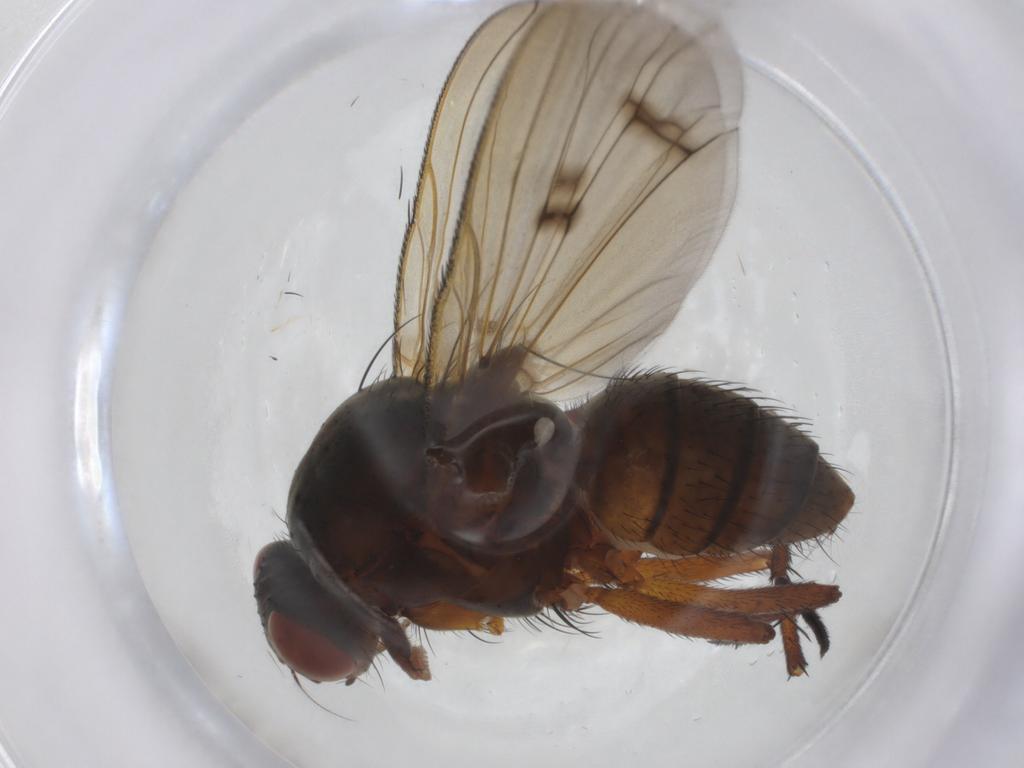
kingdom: Animalia
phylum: Arthropoda
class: Insecta
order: Diptera
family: Anthomyiidae
